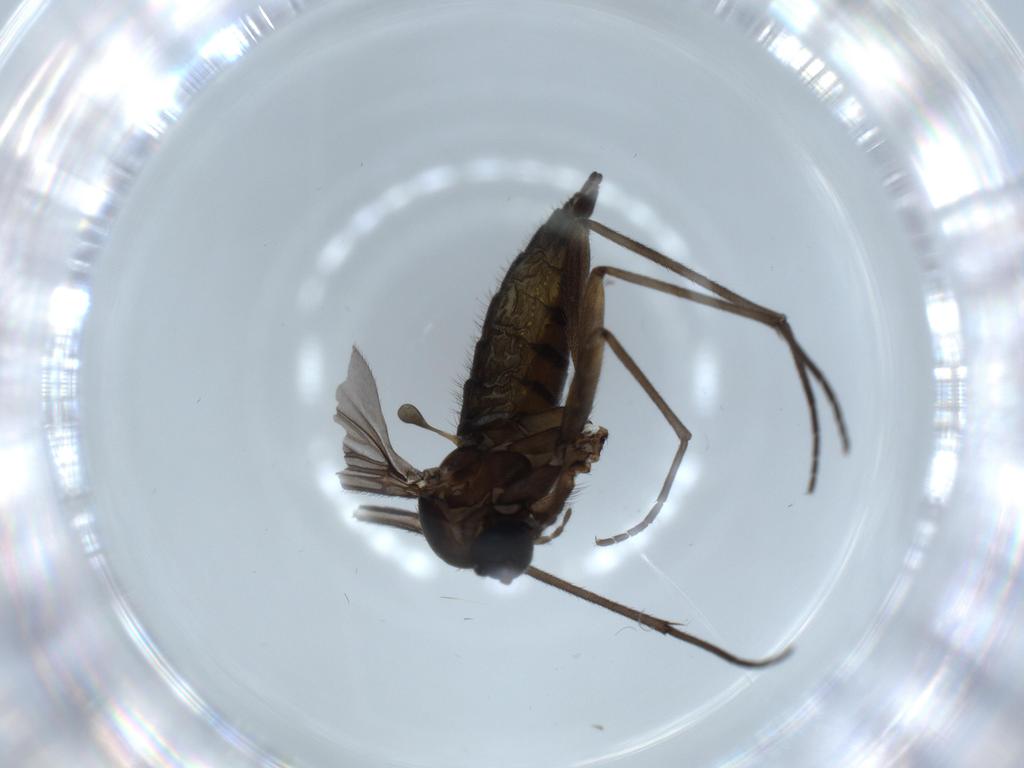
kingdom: Animalia
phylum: Arthropoda
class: Insecta
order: Diptera
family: Sciaridae
